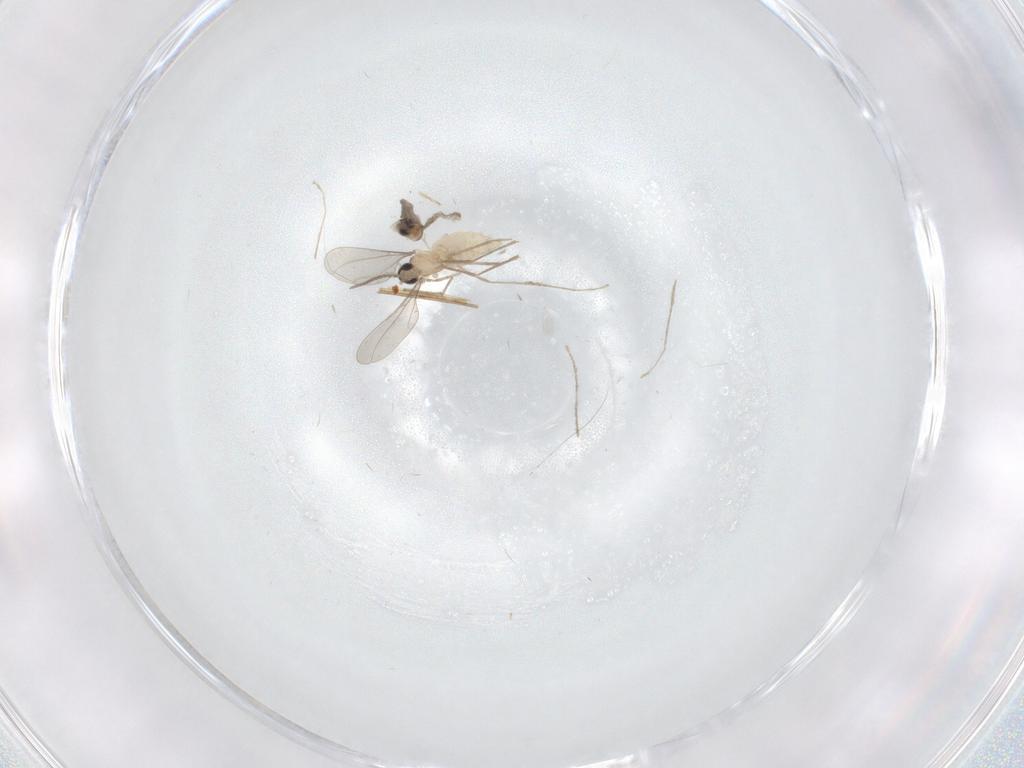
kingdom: Animalia
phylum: Arthropoda
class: Insecta
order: Diptera
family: Cecidomyiidae
